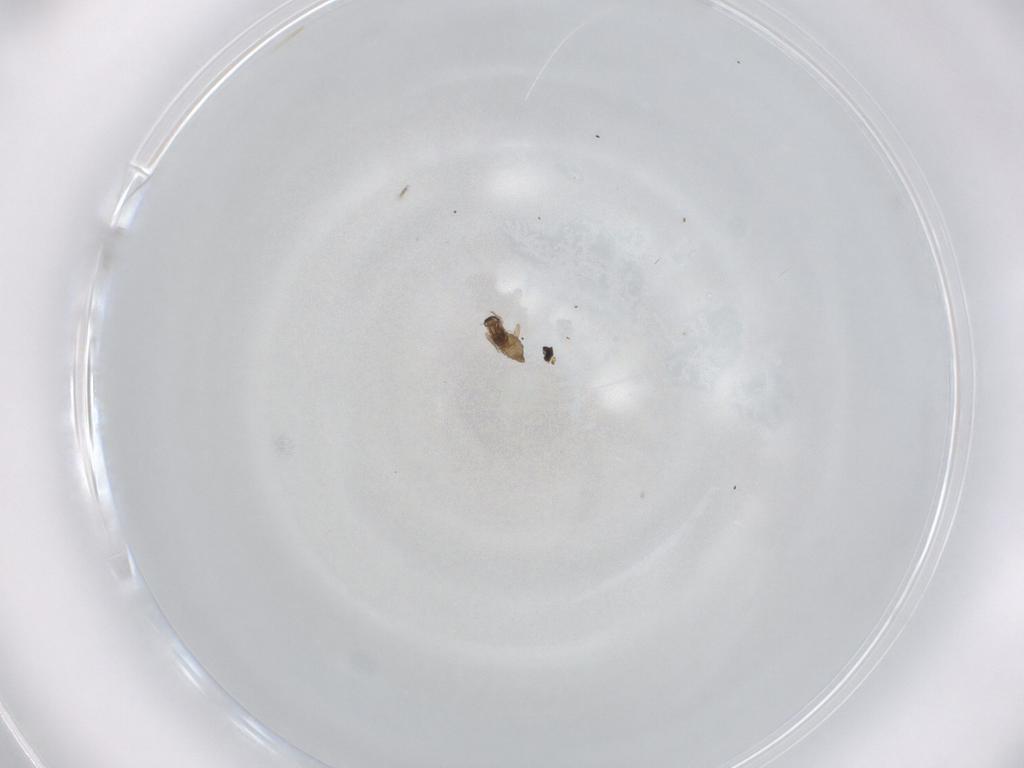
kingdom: Animalia
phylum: Arthropoda
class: Insecta
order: Diptera
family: Cecidomyiidae
